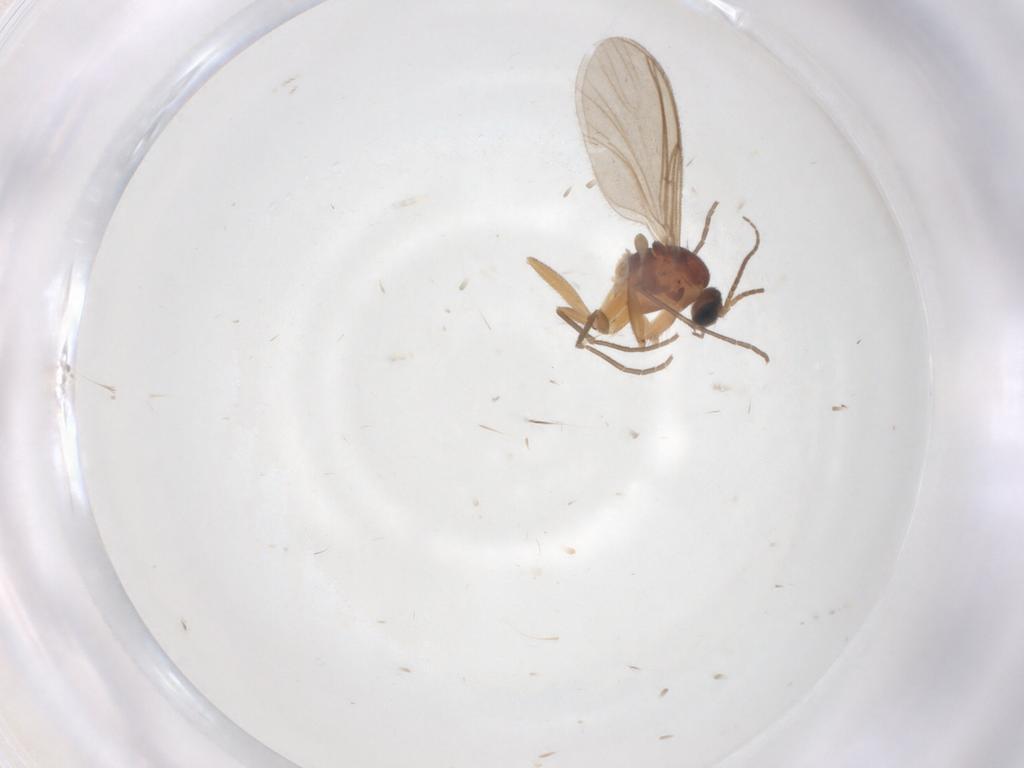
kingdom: Animalia
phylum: Arthropoda
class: Insecta
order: Diptera
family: Sciaridae
